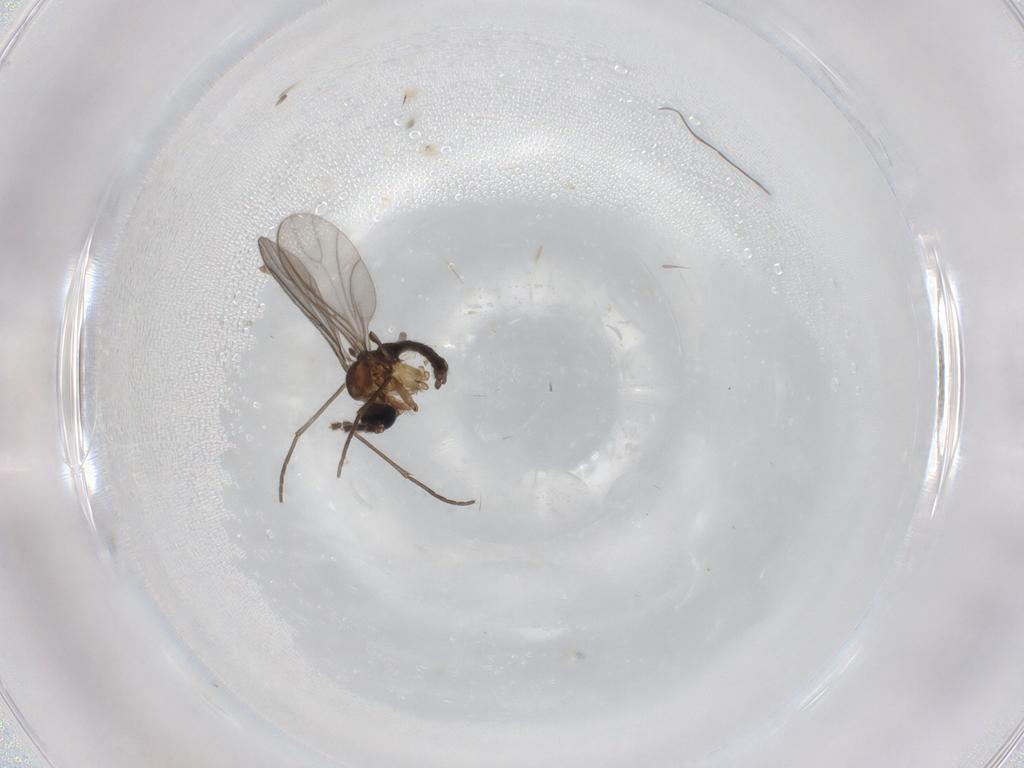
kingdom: Animalia
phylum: Arthropoda
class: Insecta
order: Diptera
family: Sciaridae
